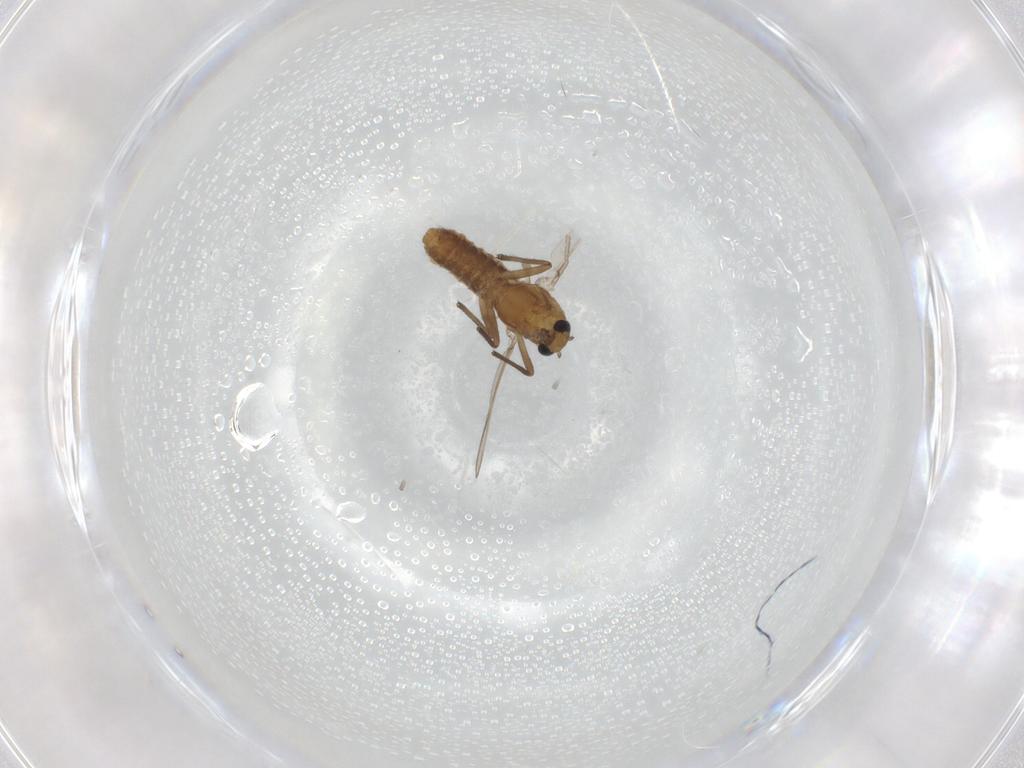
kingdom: Animalia
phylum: Arthropoda
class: Insecta
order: Diptera
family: Chironomidae
